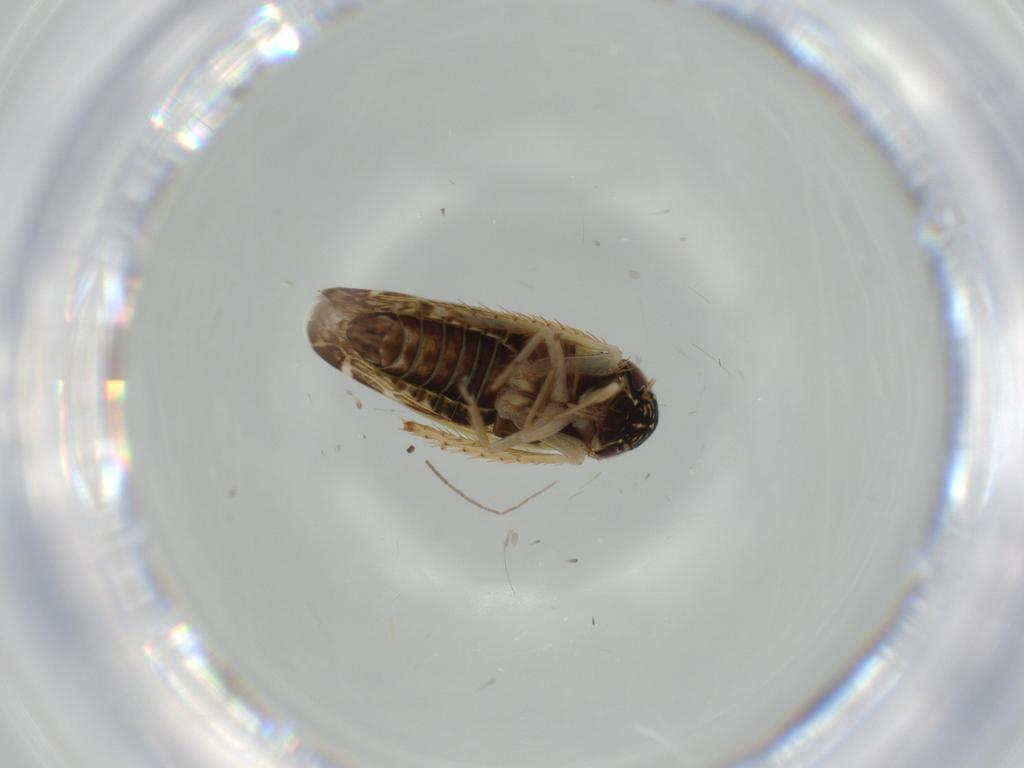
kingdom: Animalia
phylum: Arthropoda
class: Insecta
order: Hemiptera
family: Cicadellidae
